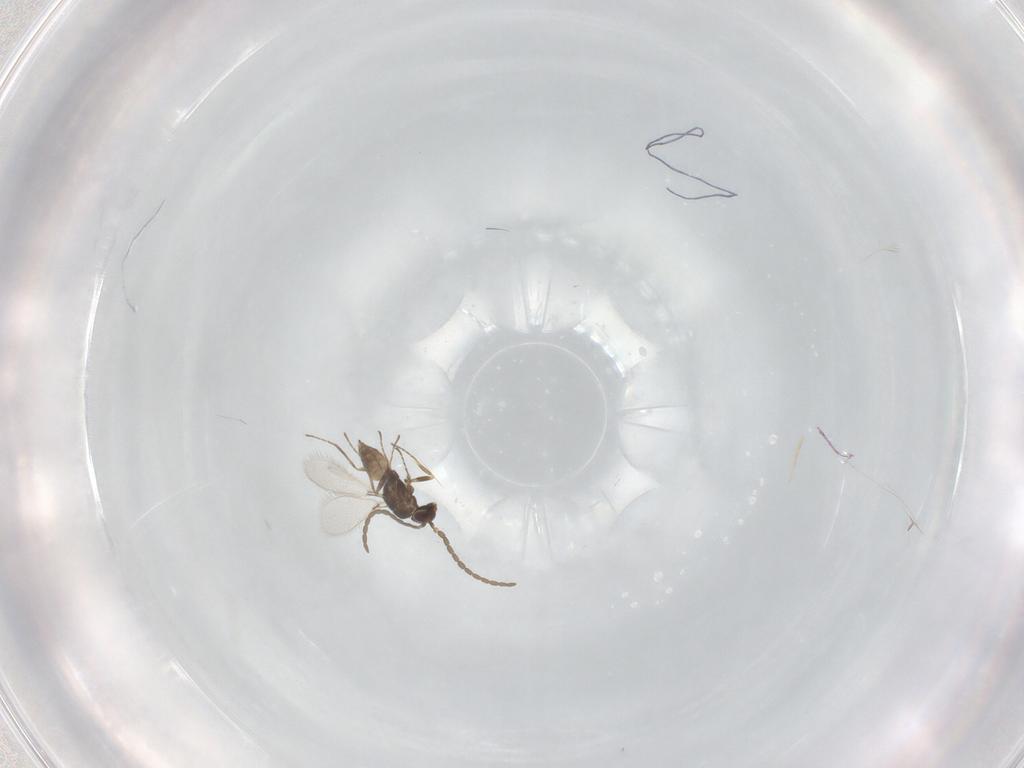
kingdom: Animalia
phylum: Arthropoda
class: Insecta
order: Hymenoptera
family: Mymaridae
